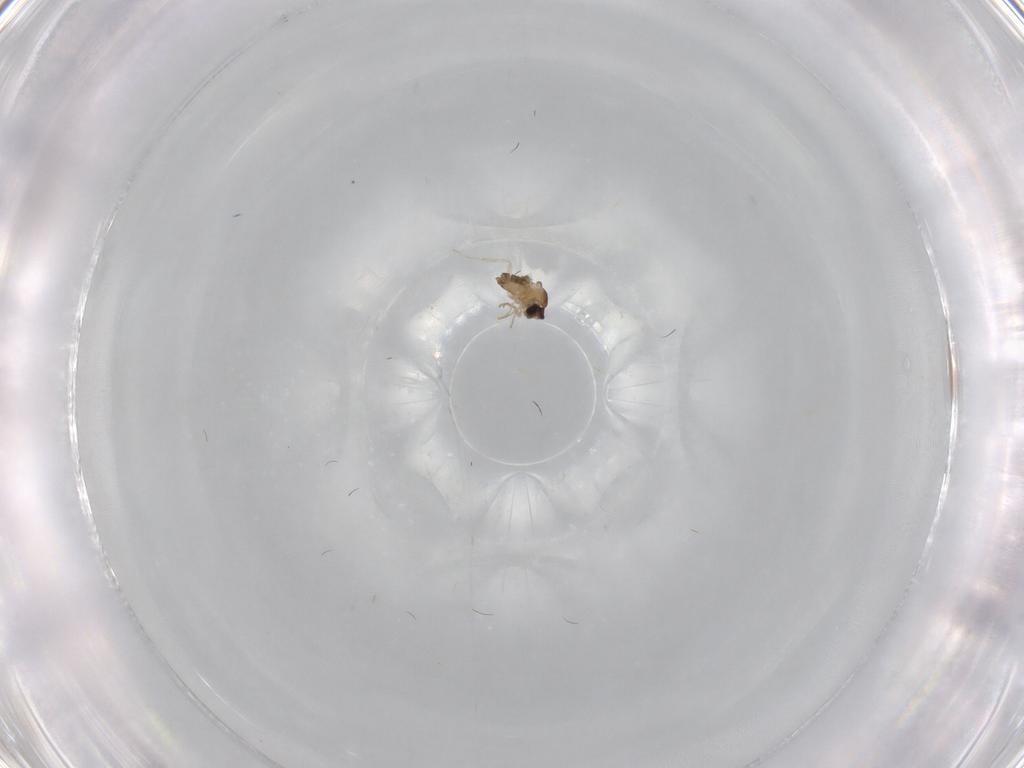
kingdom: Animalia
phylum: Arthropoda
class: Insecta
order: Diptera
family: Cecidomyiidae
